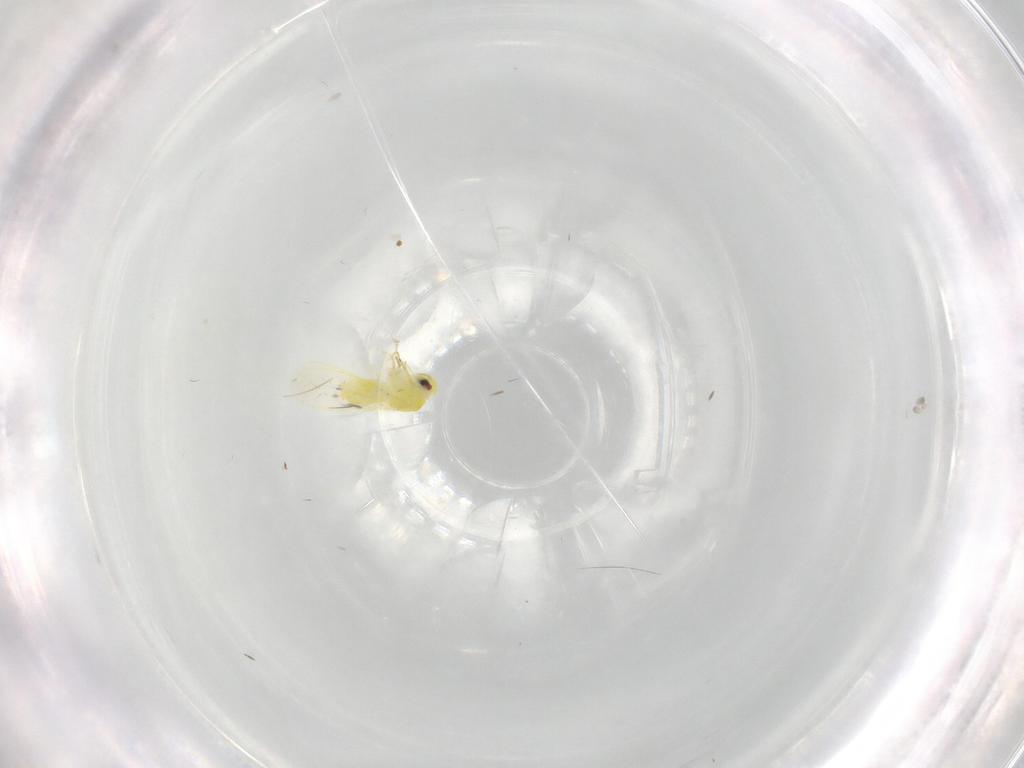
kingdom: Animalia
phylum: Arthropoda
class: Insecta
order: Hemiptera
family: Aleyrodidae
